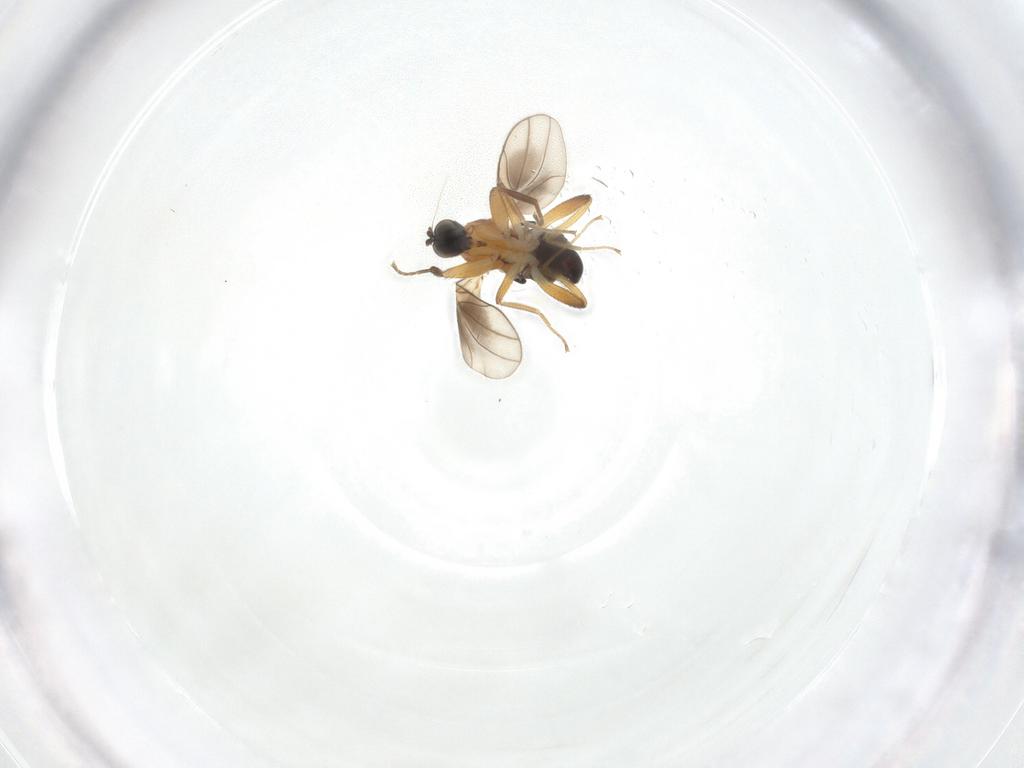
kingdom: Animalia
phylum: Arthropoda
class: Insecta
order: Diptera
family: Hybotidae
